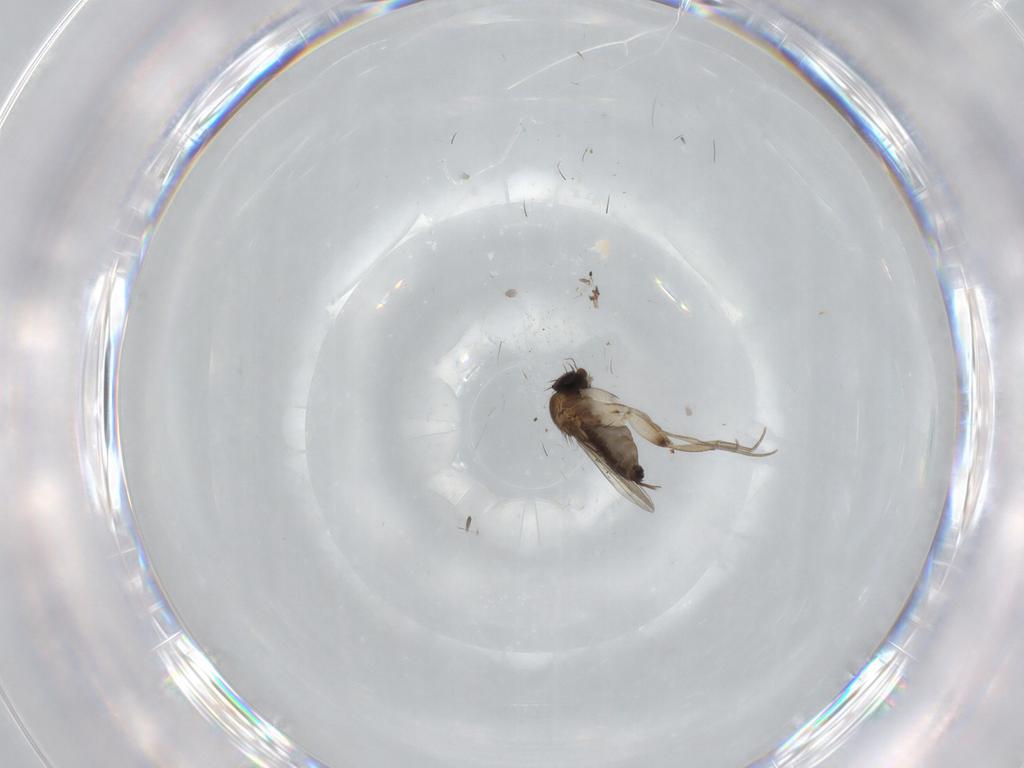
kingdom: Animalia
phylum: Arthropoda
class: Insecta
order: Diptera
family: Phoridae
